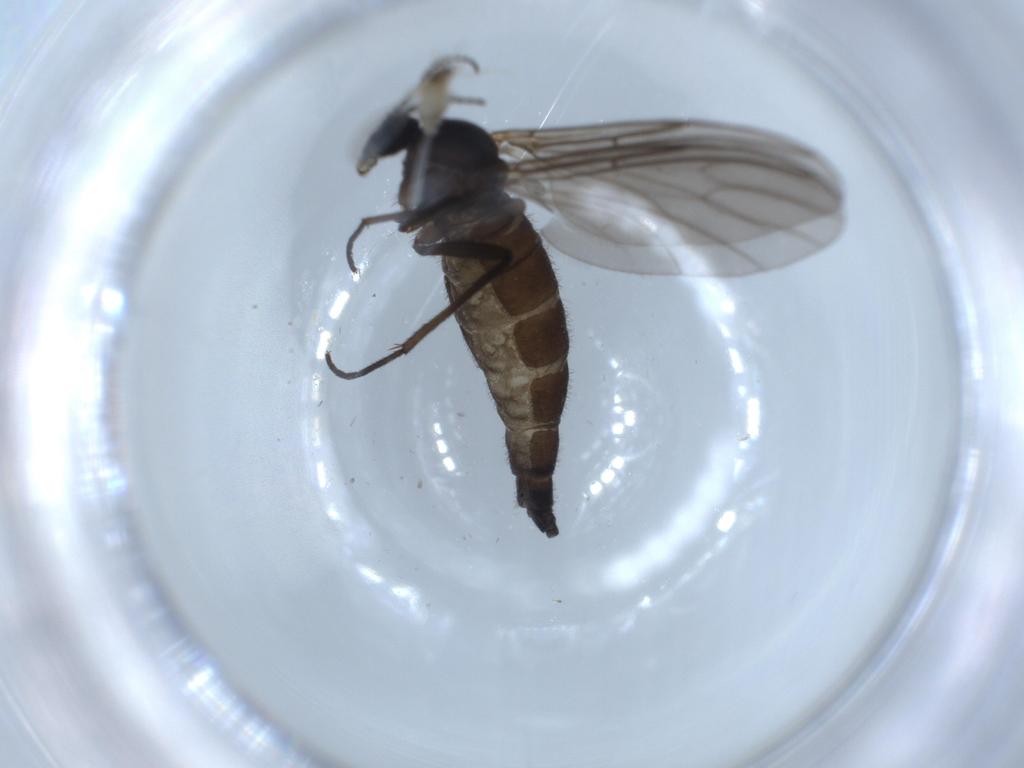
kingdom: Animalia
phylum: Arthropoda
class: Insecta
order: Diptera
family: Sciaridae
